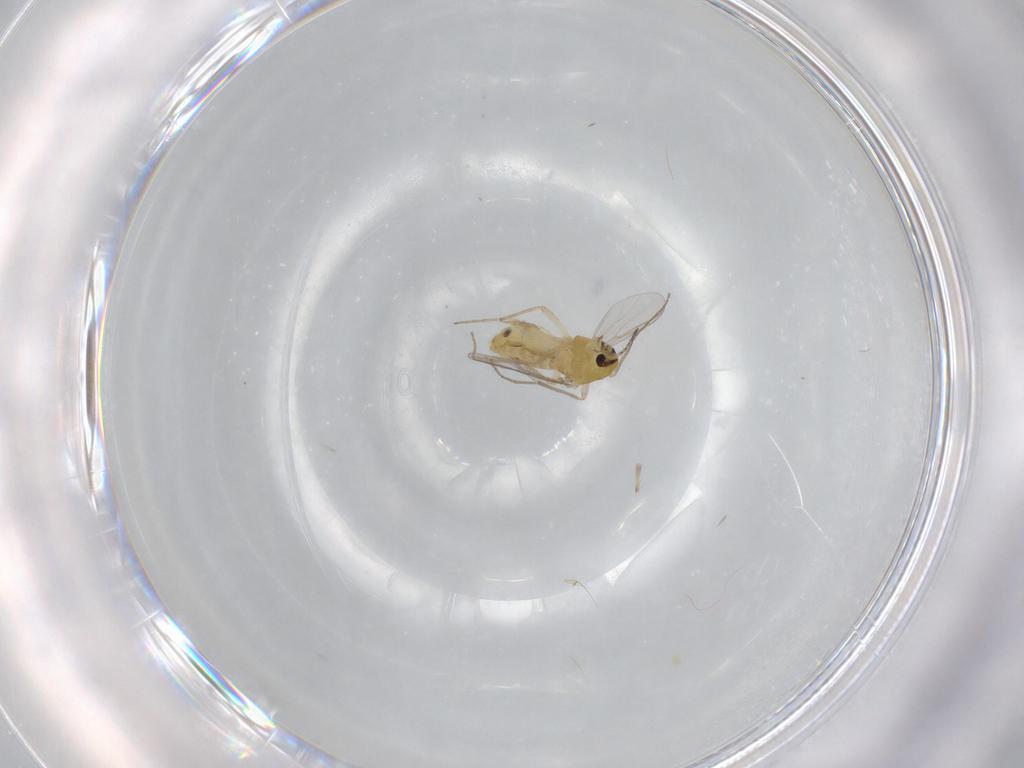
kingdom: Animalia
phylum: Arthropoda
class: Insecta
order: Diptera
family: Chironomidae
